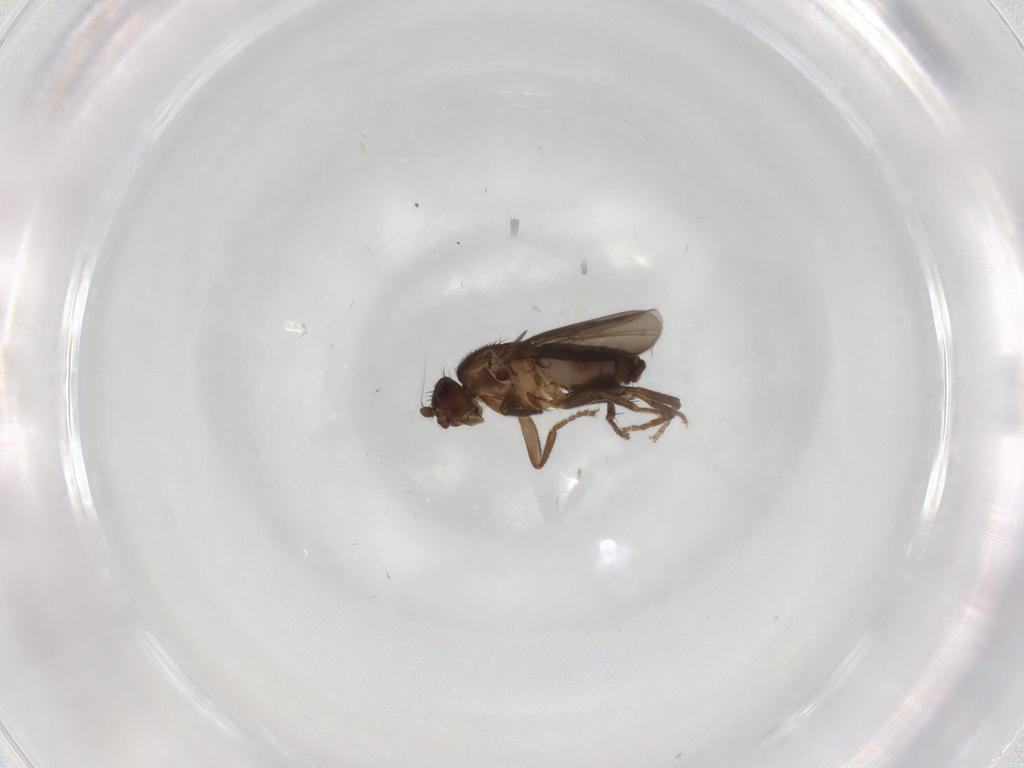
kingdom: Animalia
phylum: Arthropoda
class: Insecta
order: Diptera
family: Sphaeroceridae
